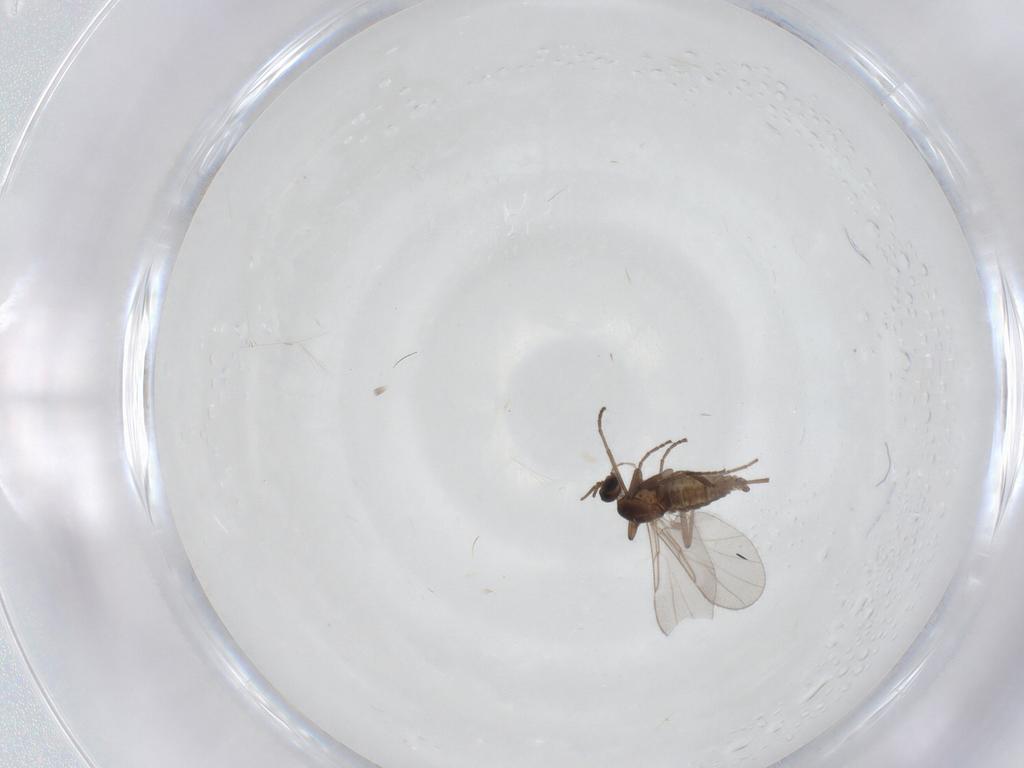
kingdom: Animalia
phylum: Arthropoda
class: Insecta
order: Diptera
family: Cecidomyiidae
